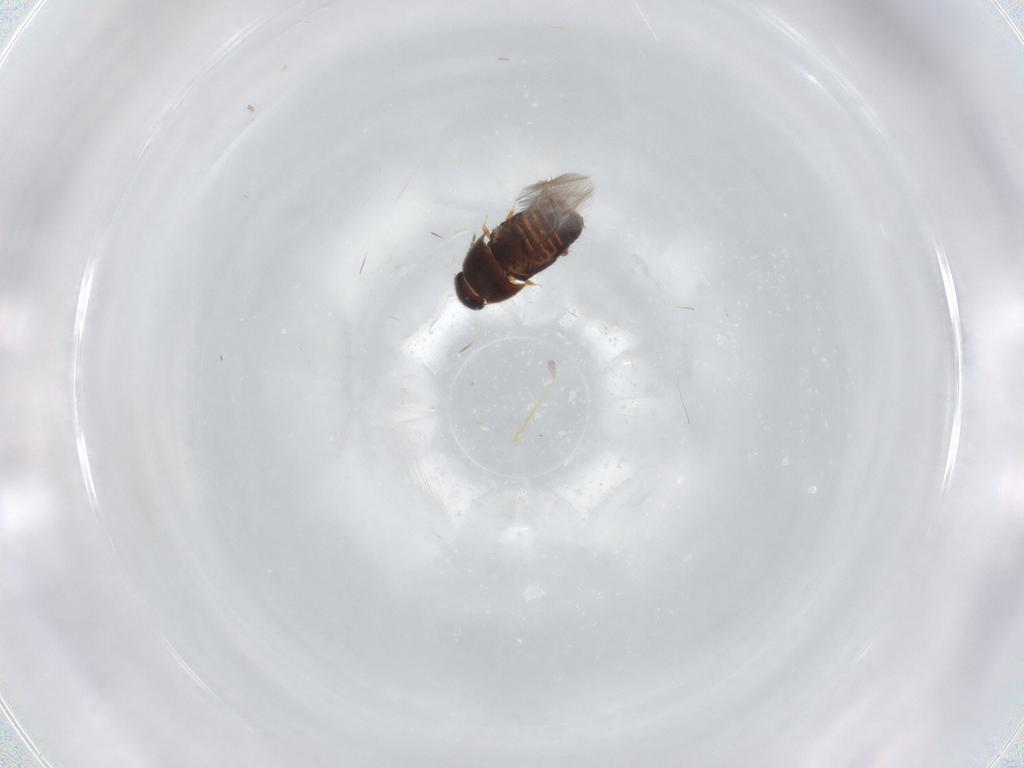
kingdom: Animalia
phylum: Arthropoda
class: Insecta
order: Coleoptera
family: Ptiliidae
